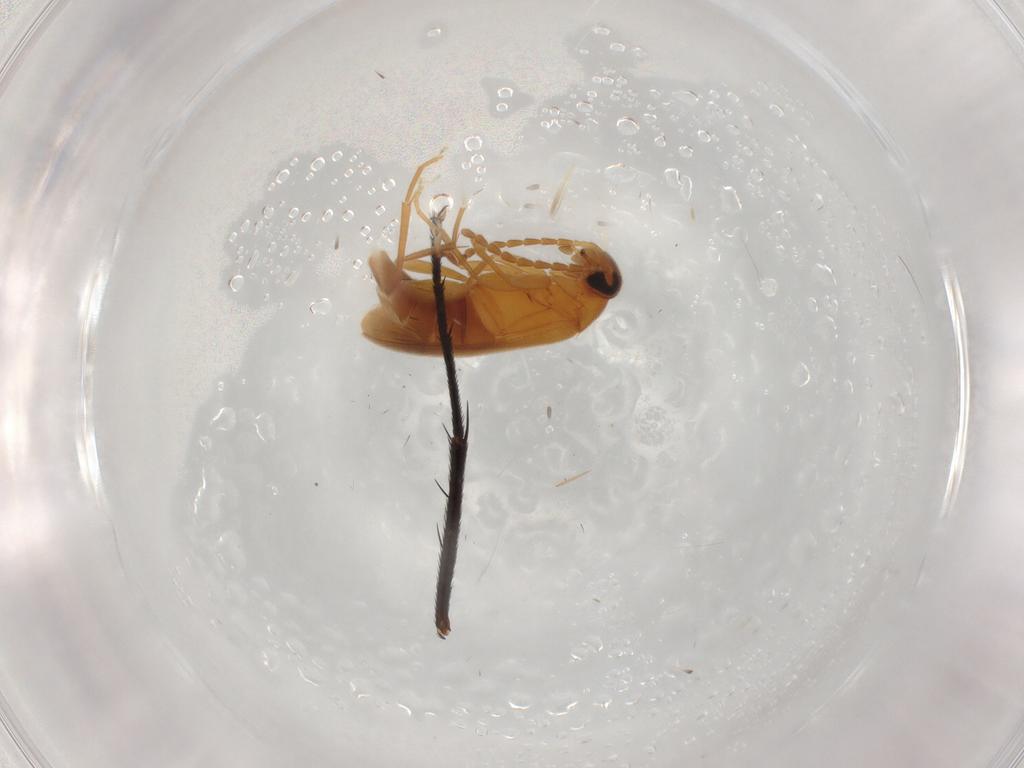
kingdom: Animalia
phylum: Arthropoda
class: Insecta
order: Coleoptera
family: Scraptiidae
